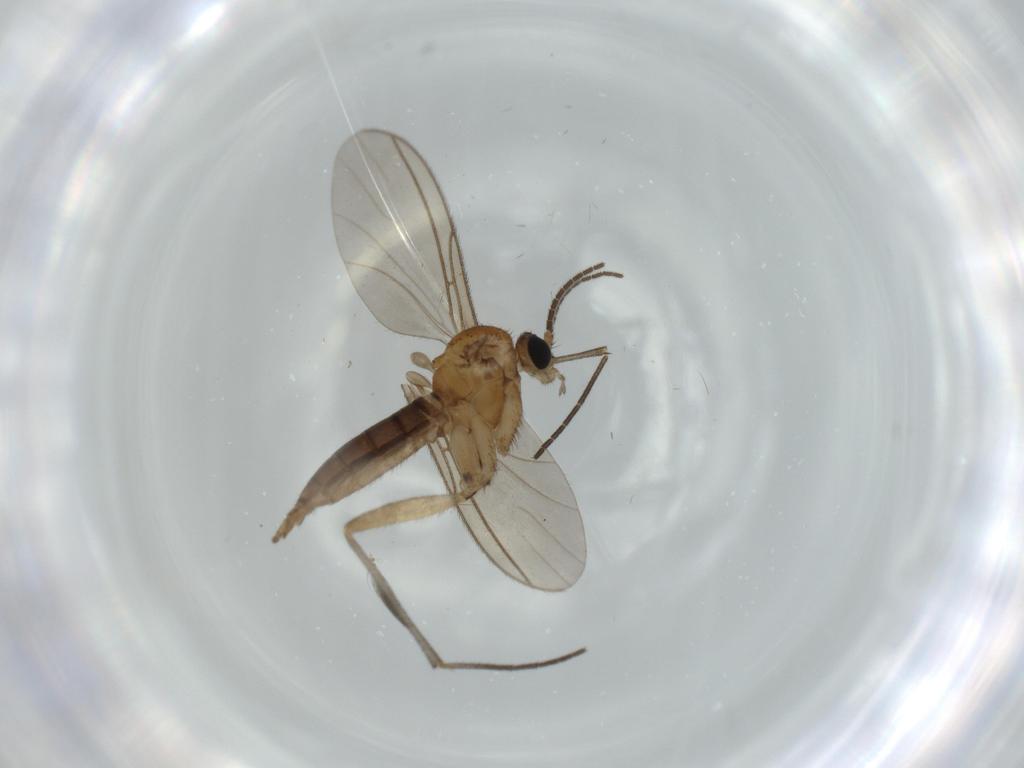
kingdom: Animalia
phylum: Arthropoda
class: Insecta
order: Diptera
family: Sciaridae
